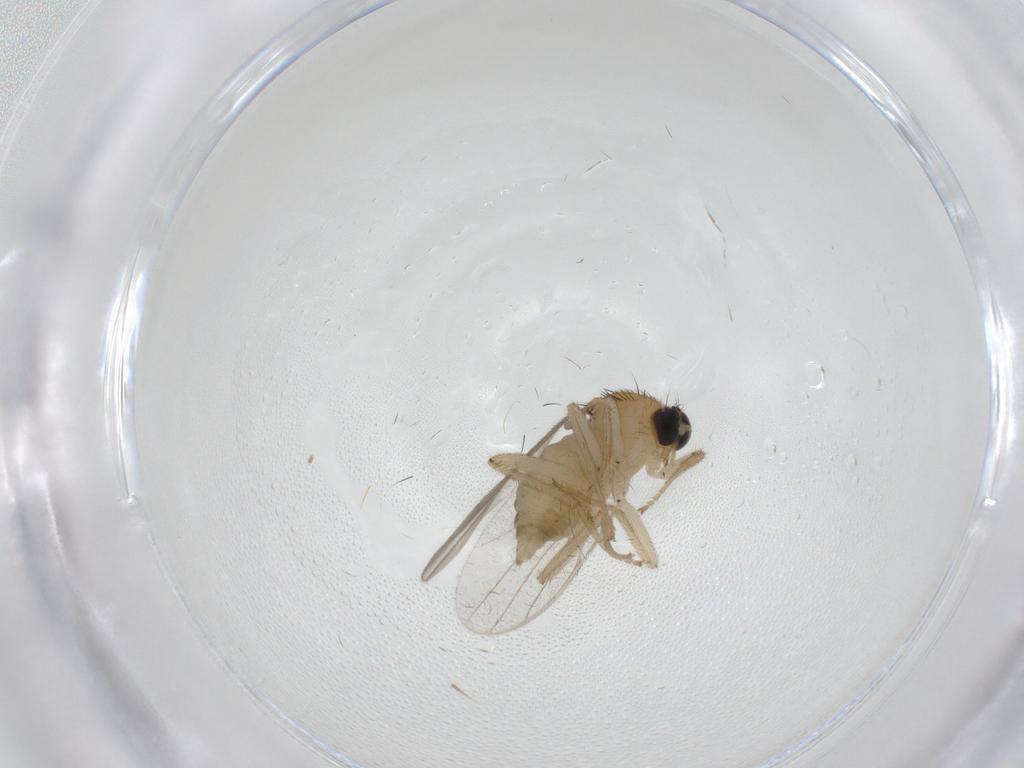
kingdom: Animalia
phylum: Arthropoda
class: Insecta
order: Diptera
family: Hybotidae
